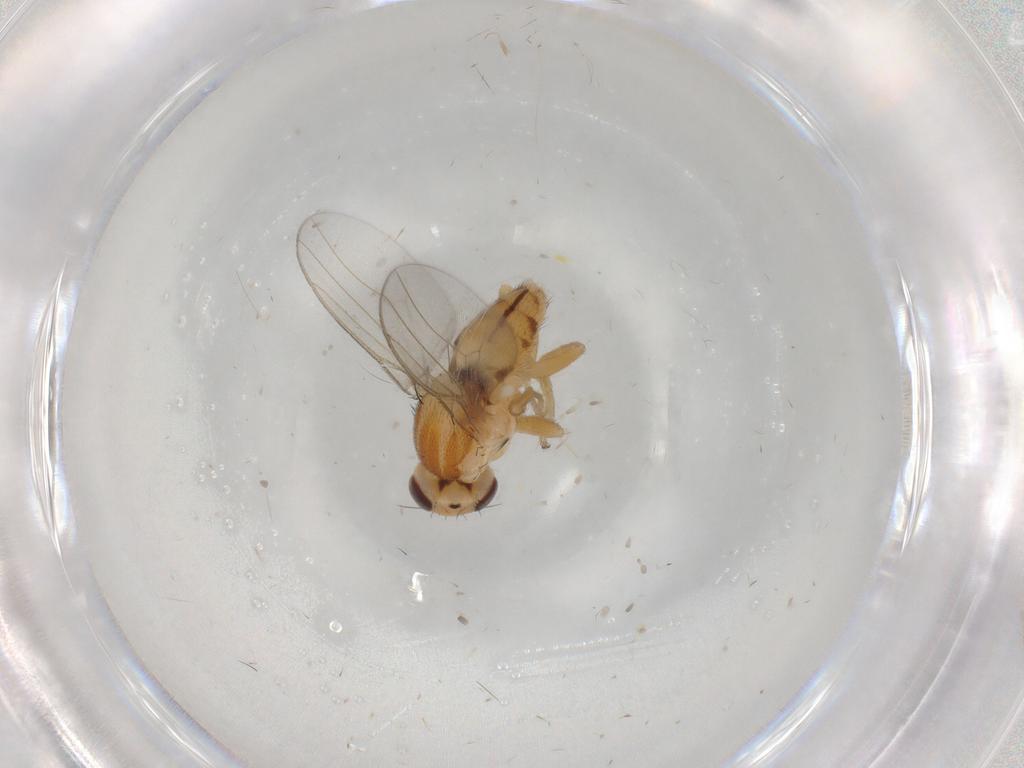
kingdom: Animalia
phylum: Arthropoda
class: Insecta
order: Diptera
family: Chloropidae
